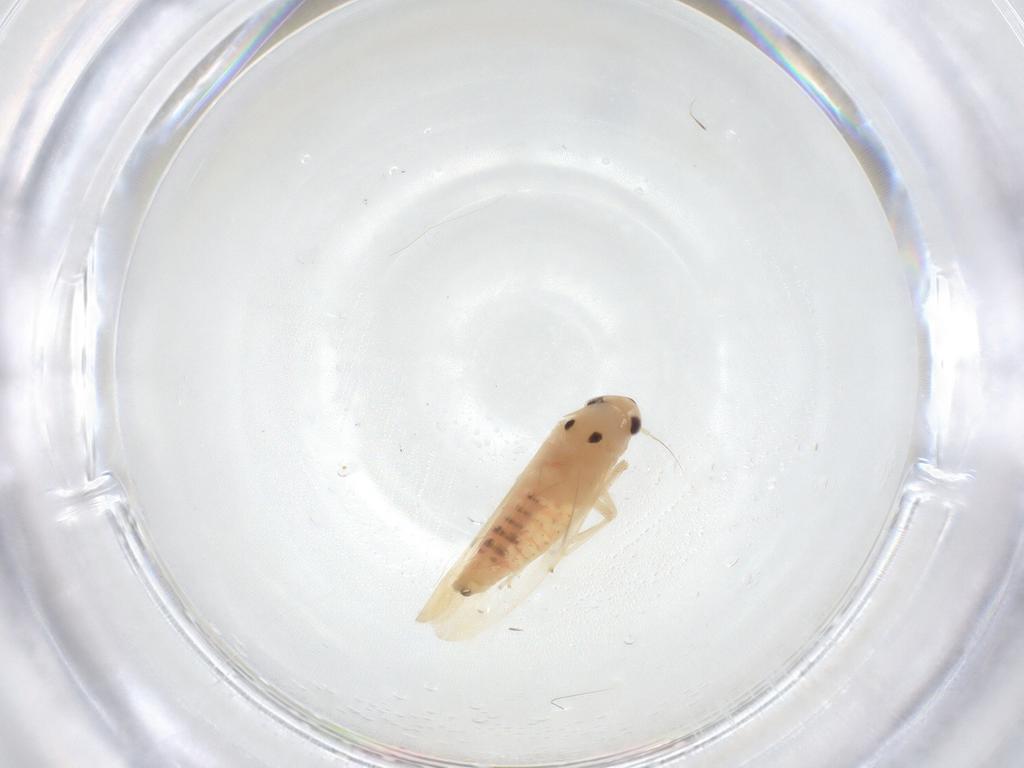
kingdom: Animalia
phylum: Arthropoda
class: Insecta
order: Hemiptera
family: Cicadellidae
